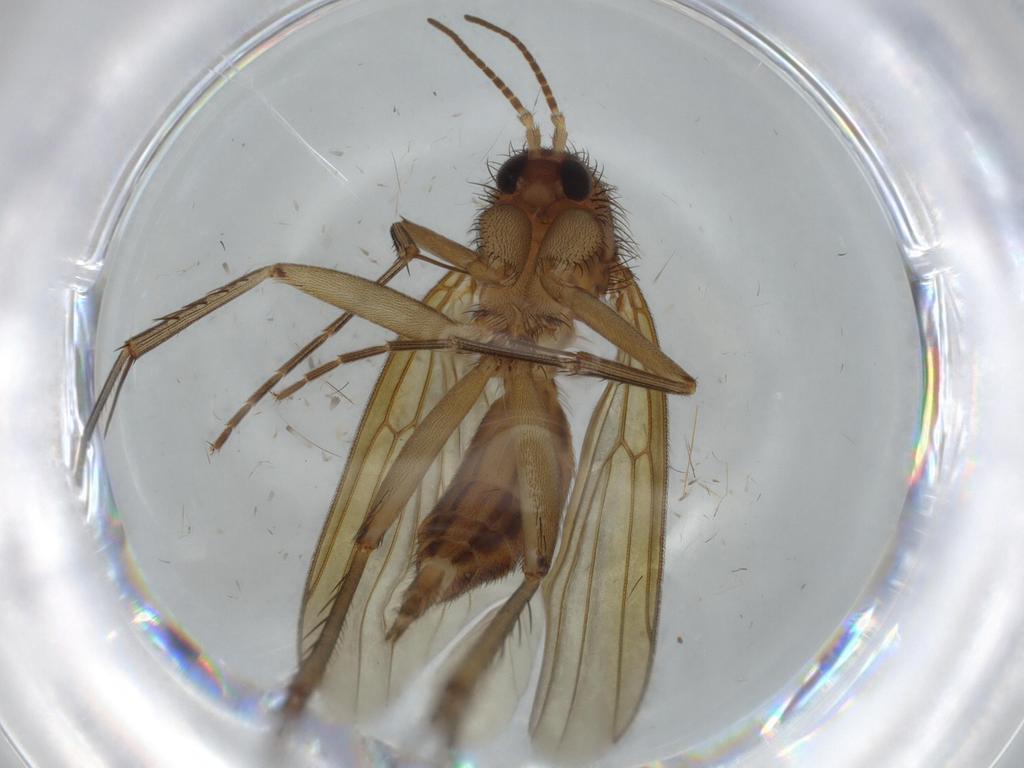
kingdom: Animalia
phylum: Arthropoda
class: Insecta
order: Diptera
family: Mycetophilidae
